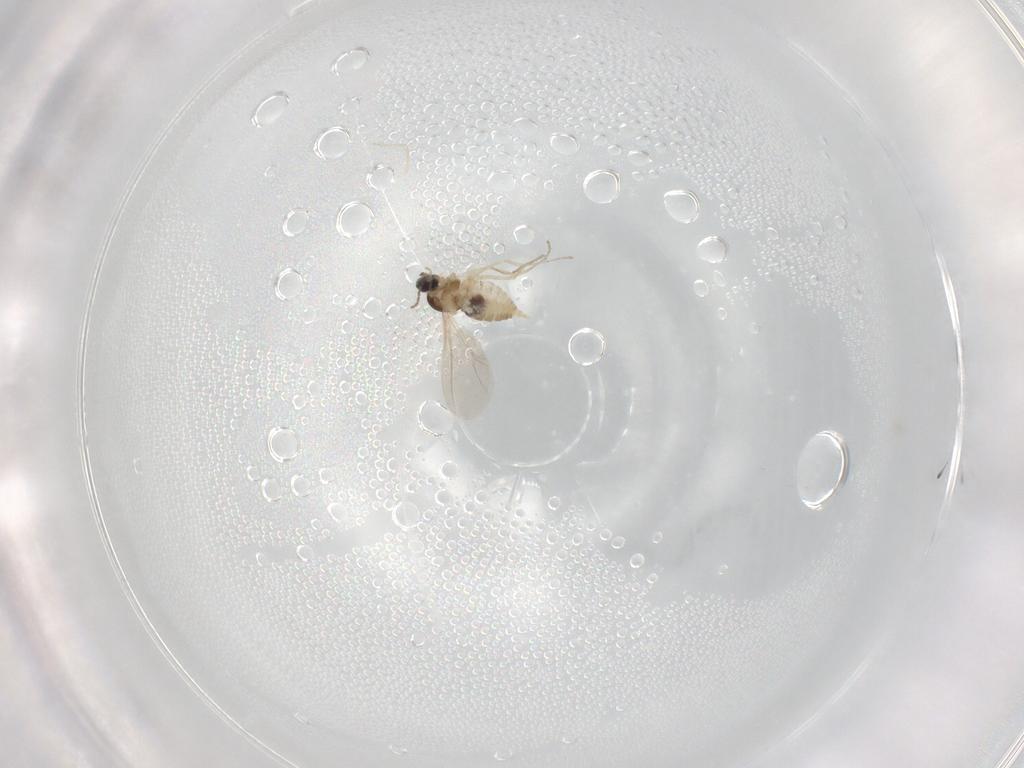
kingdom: Animalia
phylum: Arthropoda
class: Insecta
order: Diptera
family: Cecidomyiidae
